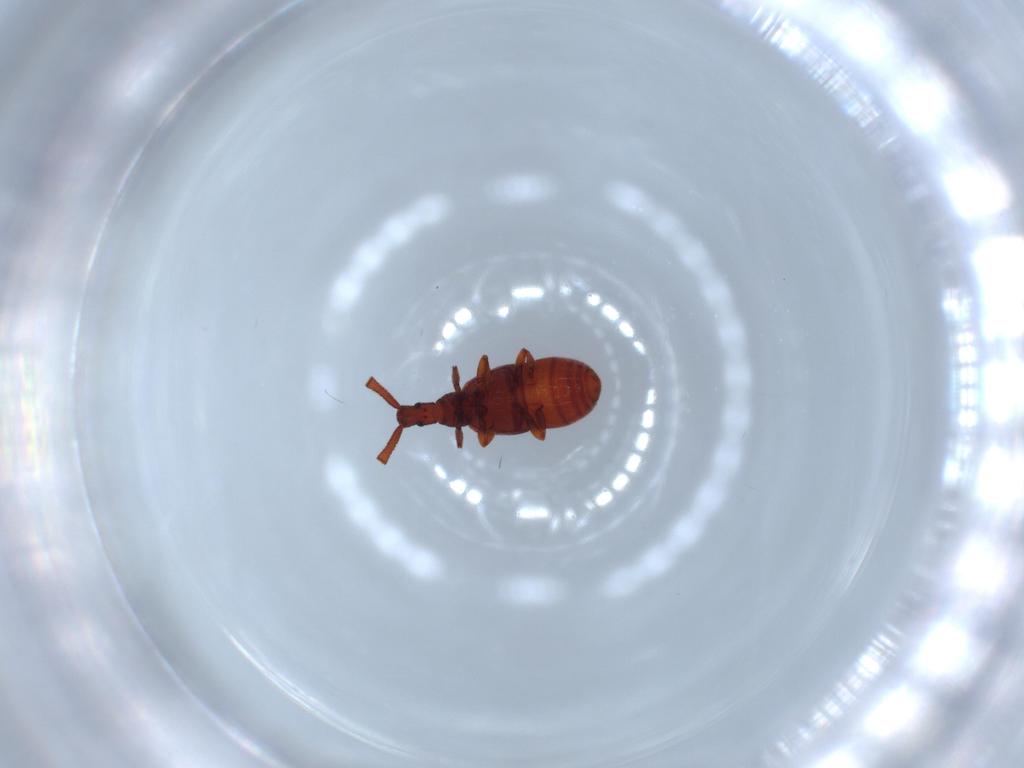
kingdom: Animalia
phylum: Arthropoda
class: Insecta
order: Coleoptera
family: Staphylinidae
